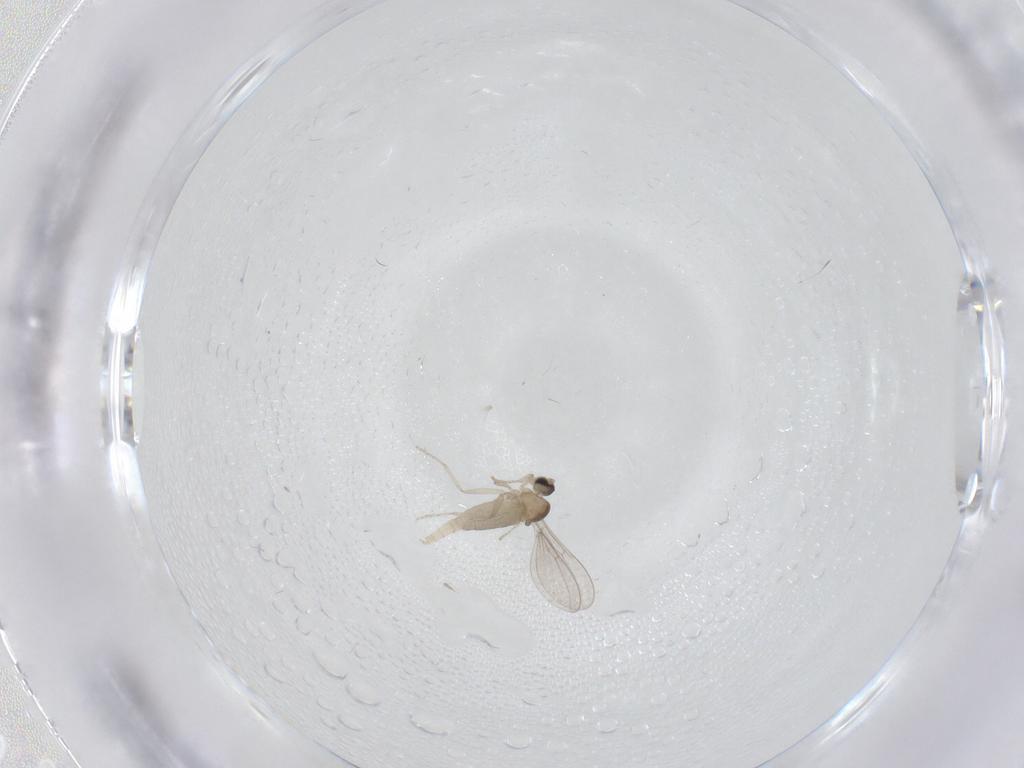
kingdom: Animalia
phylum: Arthropoda
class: Insecta
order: Diptera
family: Cecidomyiidae
